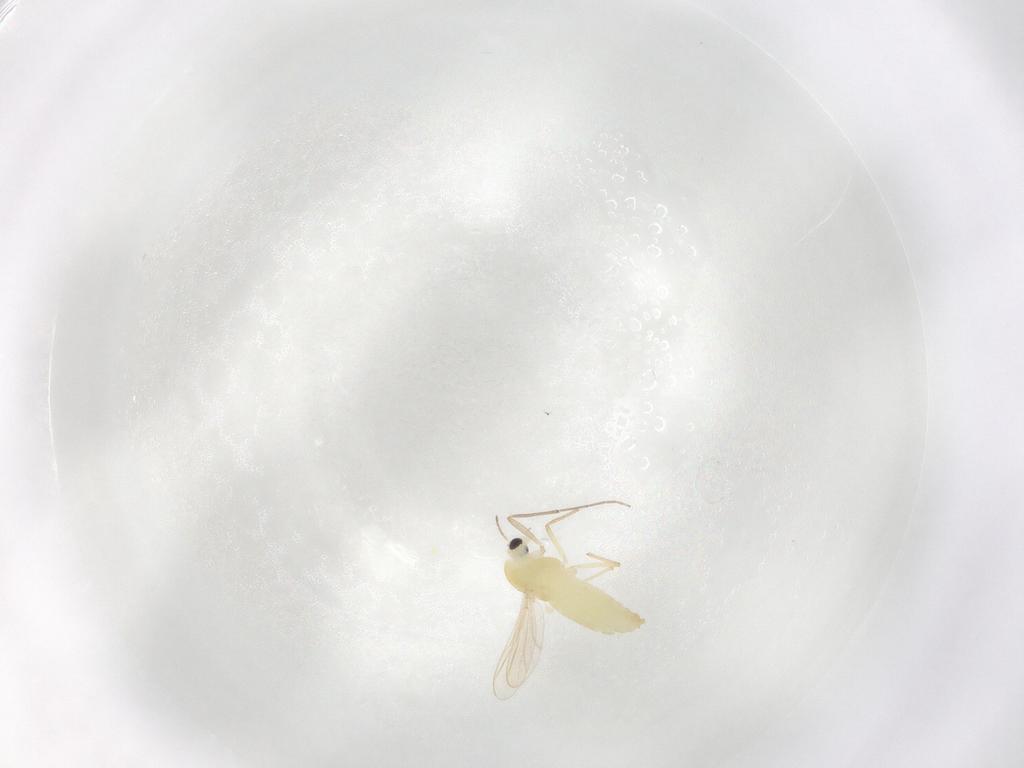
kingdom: Animalia
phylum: Arthropoda
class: Insecta
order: Diptera
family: Chironomidae
